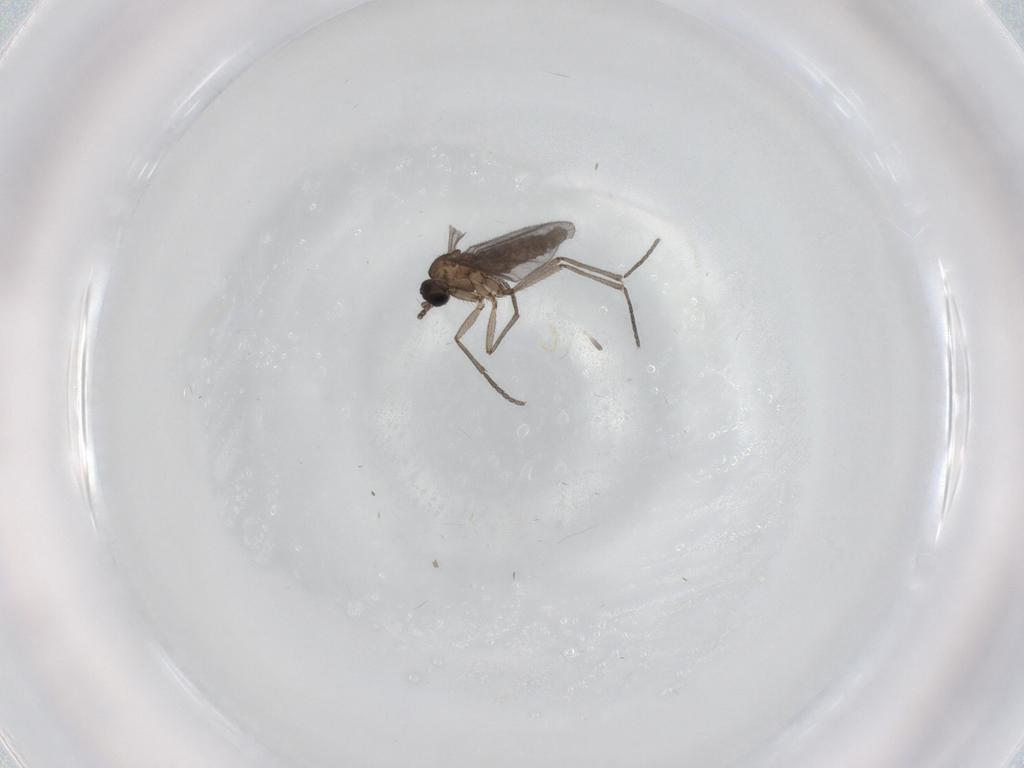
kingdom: Animalia
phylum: Arthropoda
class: Insecta
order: Diptera
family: Sciaridae
